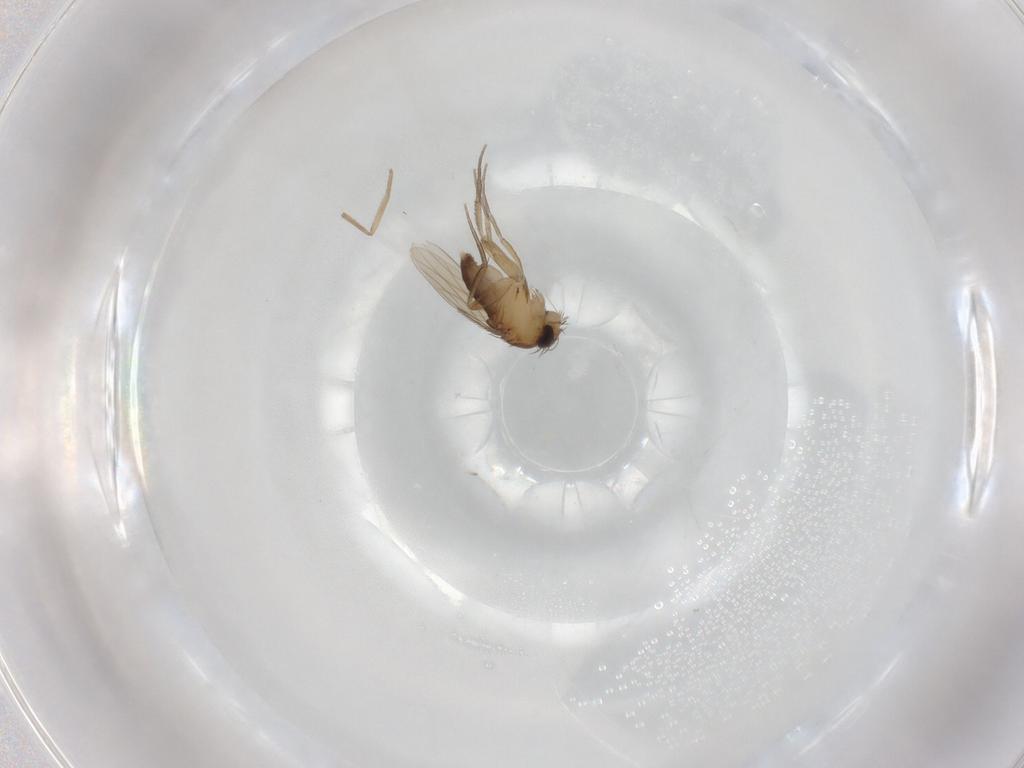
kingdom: Animalia
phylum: Arthropoda
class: Insecta
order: Diptera
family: Phoridae
